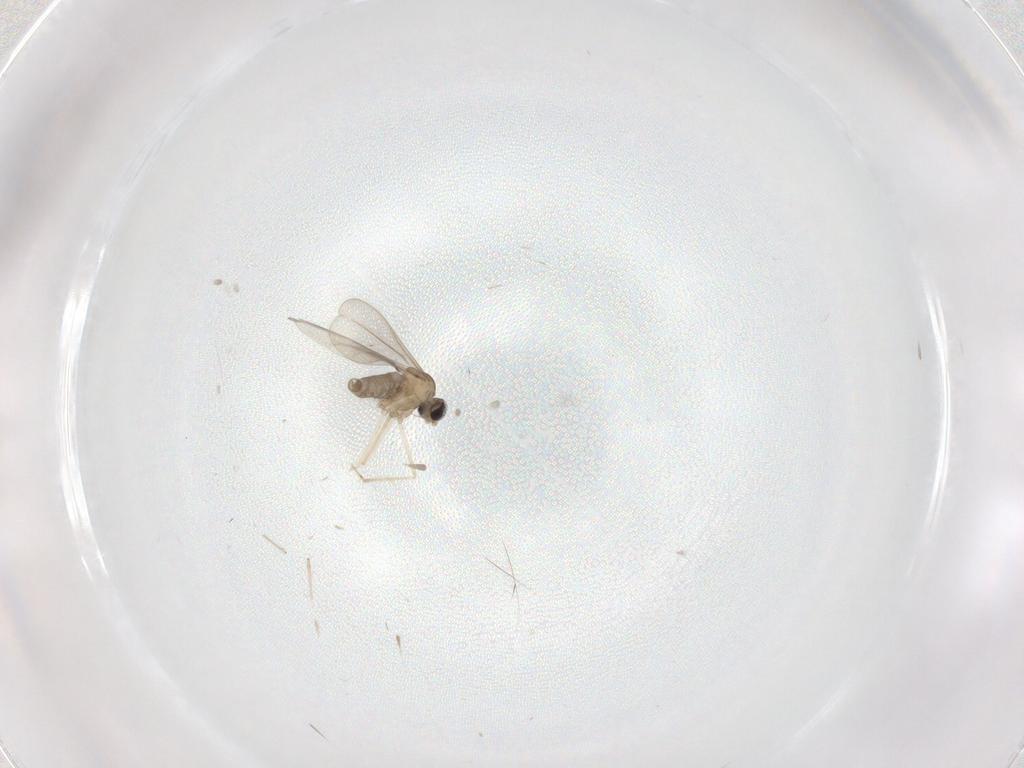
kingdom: Animalia
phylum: Arthropoda
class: Insecta
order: Diptera
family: Cecidomyiidae
